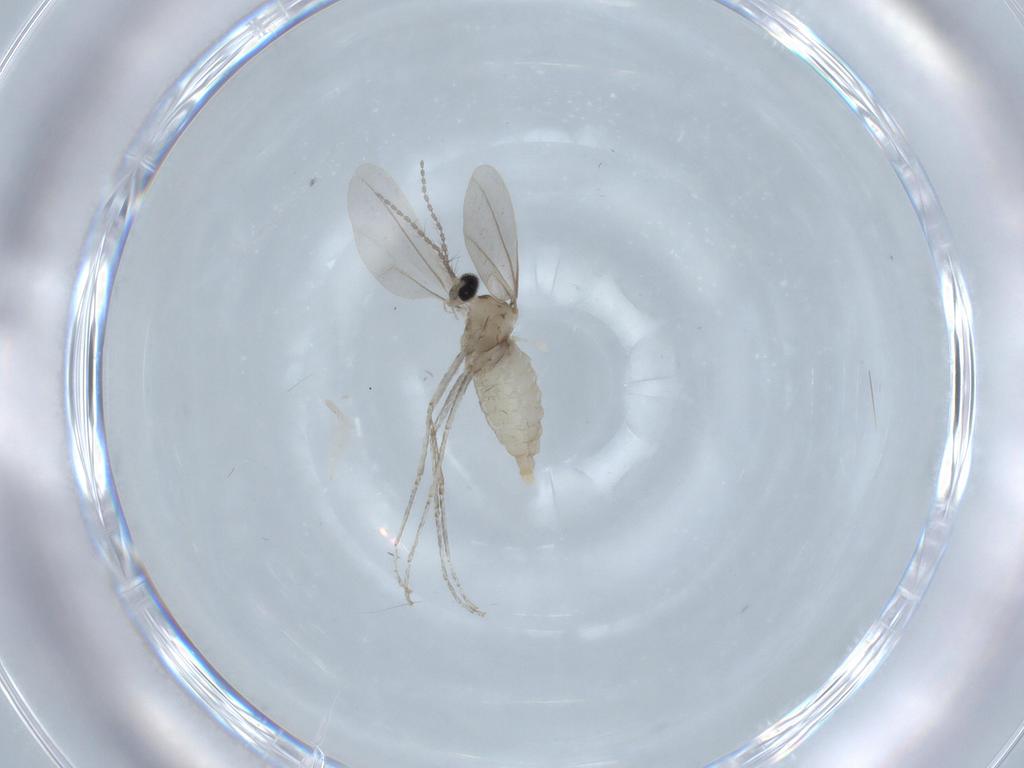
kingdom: Animalia
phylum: Arthropoda
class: Insecta
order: Diptera
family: Cecidomyiidae
